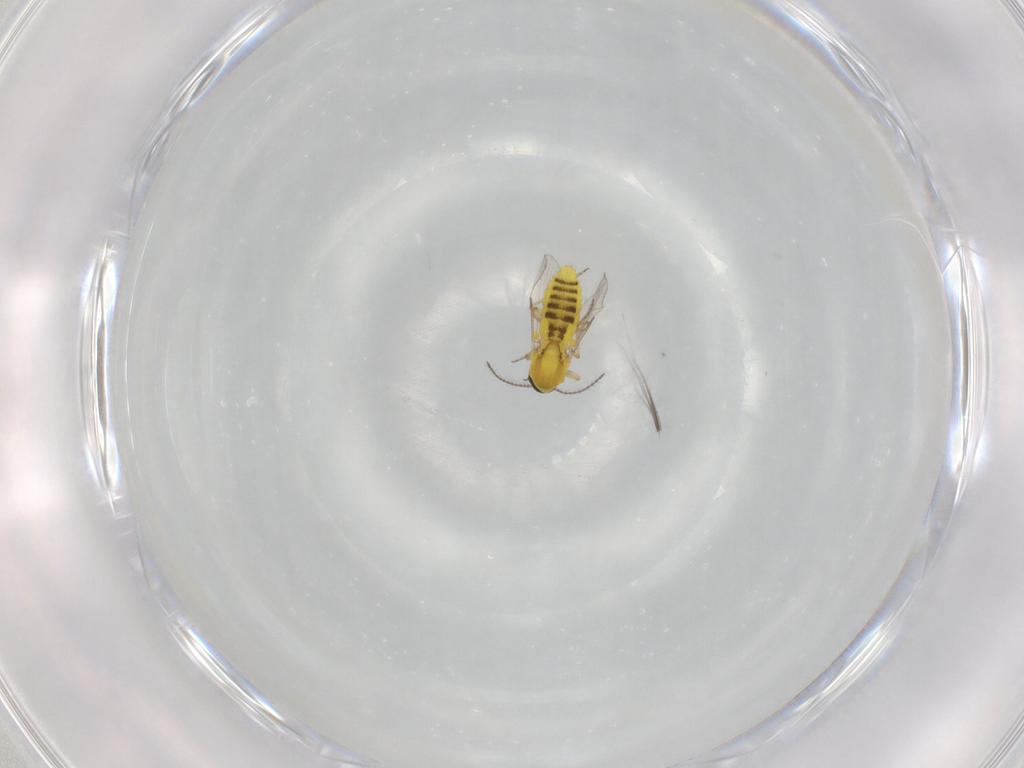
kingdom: Animalia
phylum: Arthropoda
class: Insecta
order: Diptera
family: Ceratopogonidae
